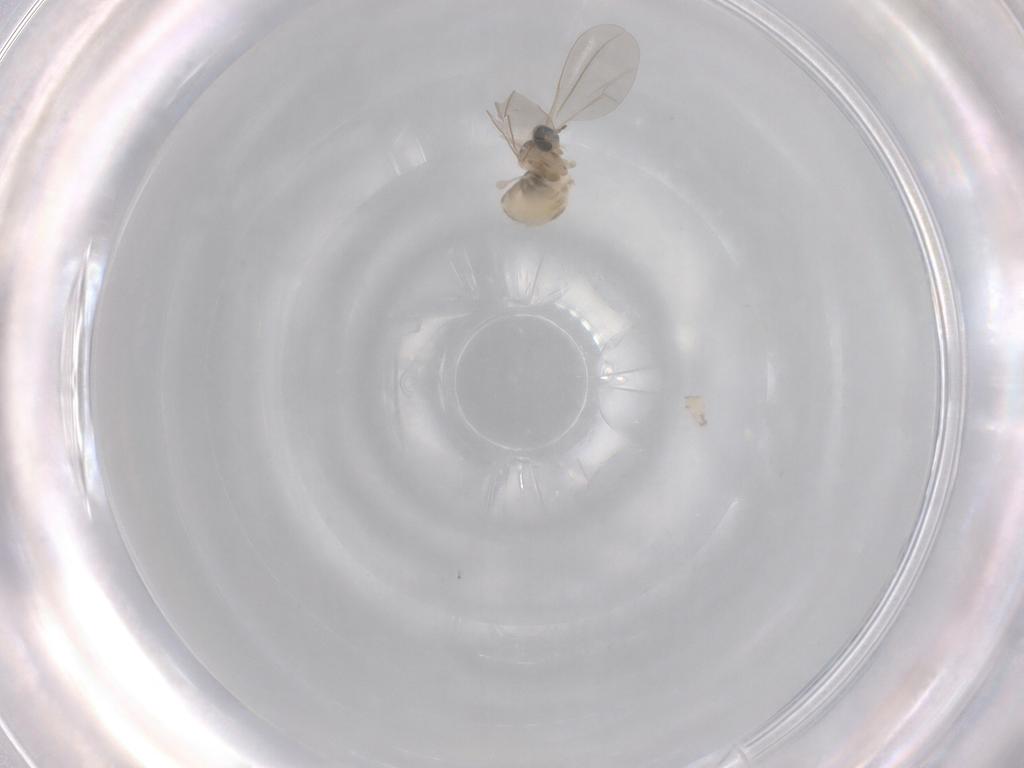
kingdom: Animalia
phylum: Arthropoda
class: Insecta
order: Diptera
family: Cecidomyiidae
